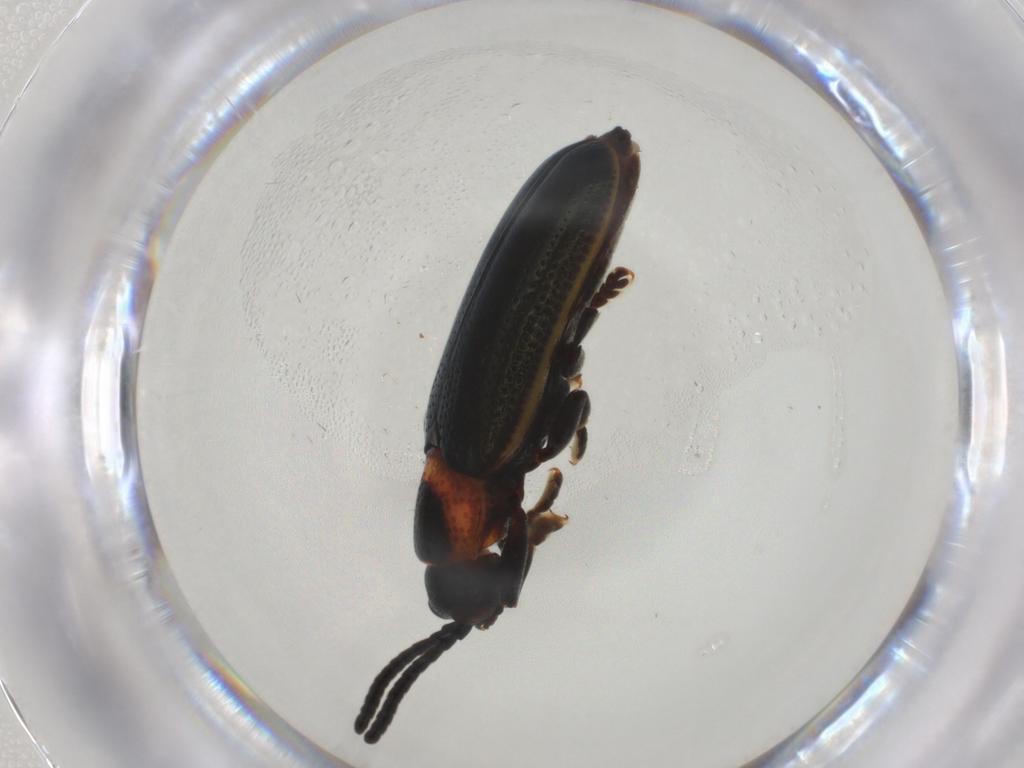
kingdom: Animalia
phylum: Arthropoda
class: Insecta
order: Coleoptera
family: Chrysomelidae
